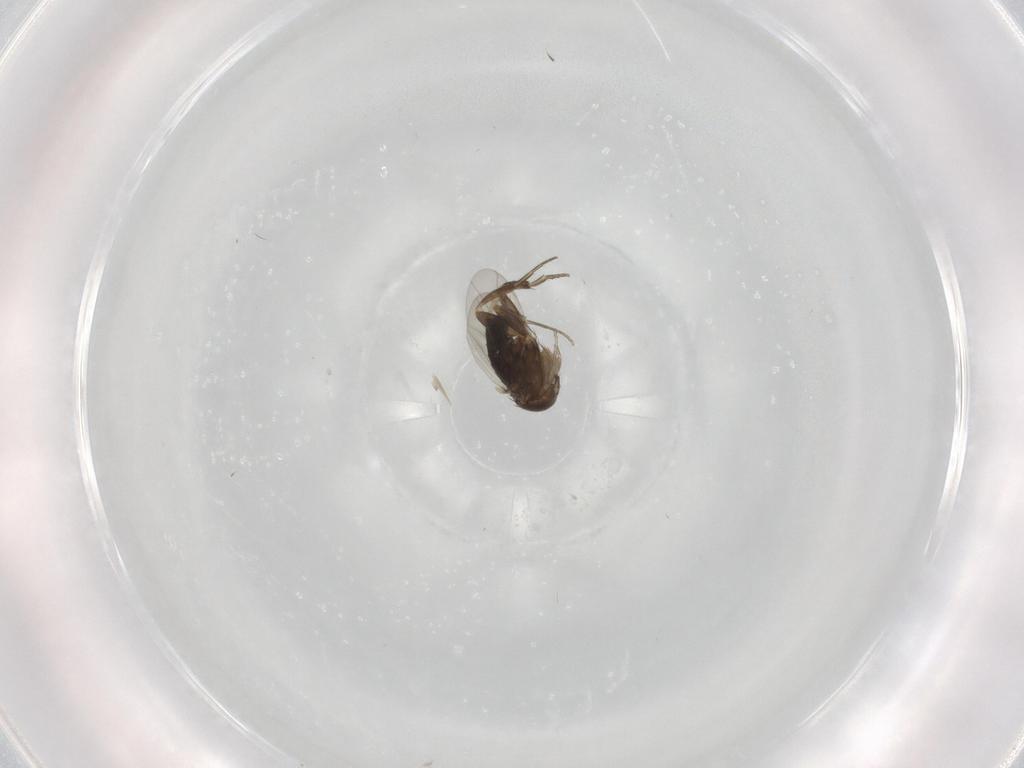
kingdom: Animalia
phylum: Arthropoda
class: Insecta
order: Diptera
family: Phoridae
